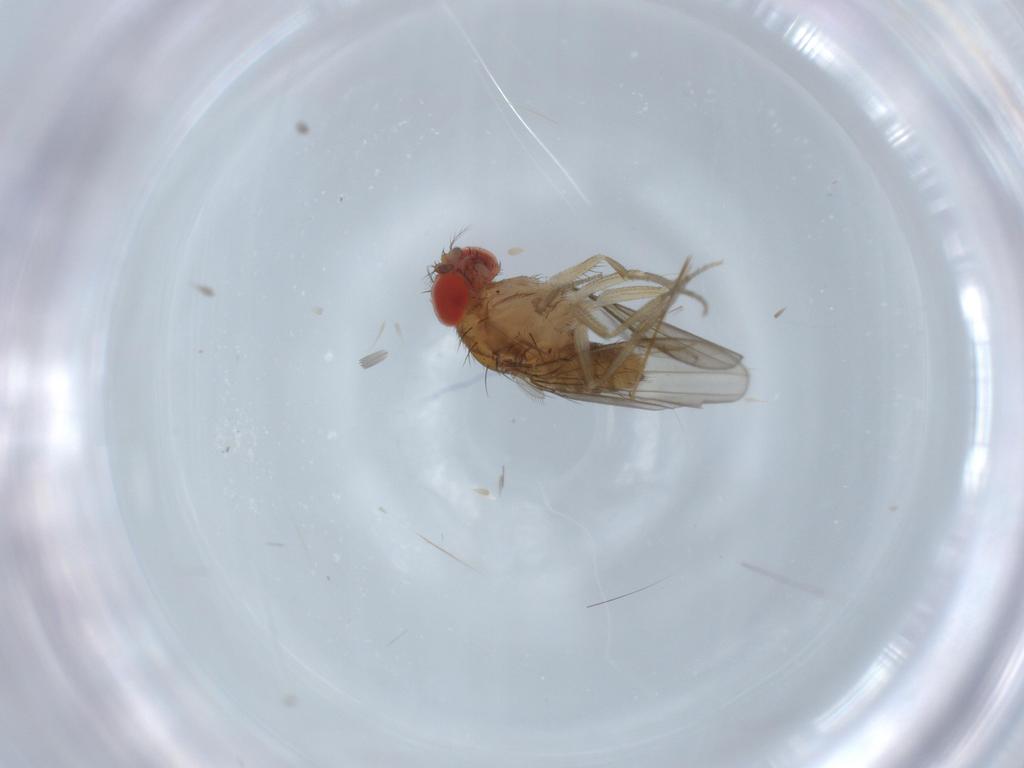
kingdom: Animalia
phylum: Arthropoda
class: Insecta
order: Diptera
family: Chironomidae
